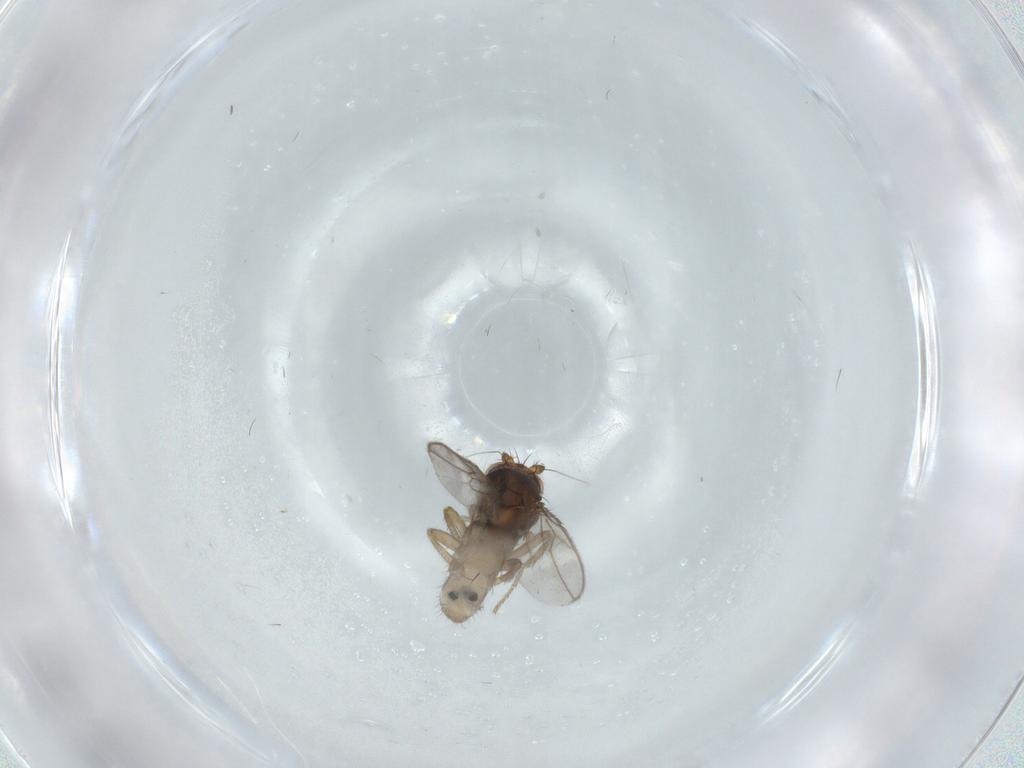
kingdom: Animalia
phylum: Arthropoda
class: Insecta
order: Diptera
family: Sphaeroceridae
